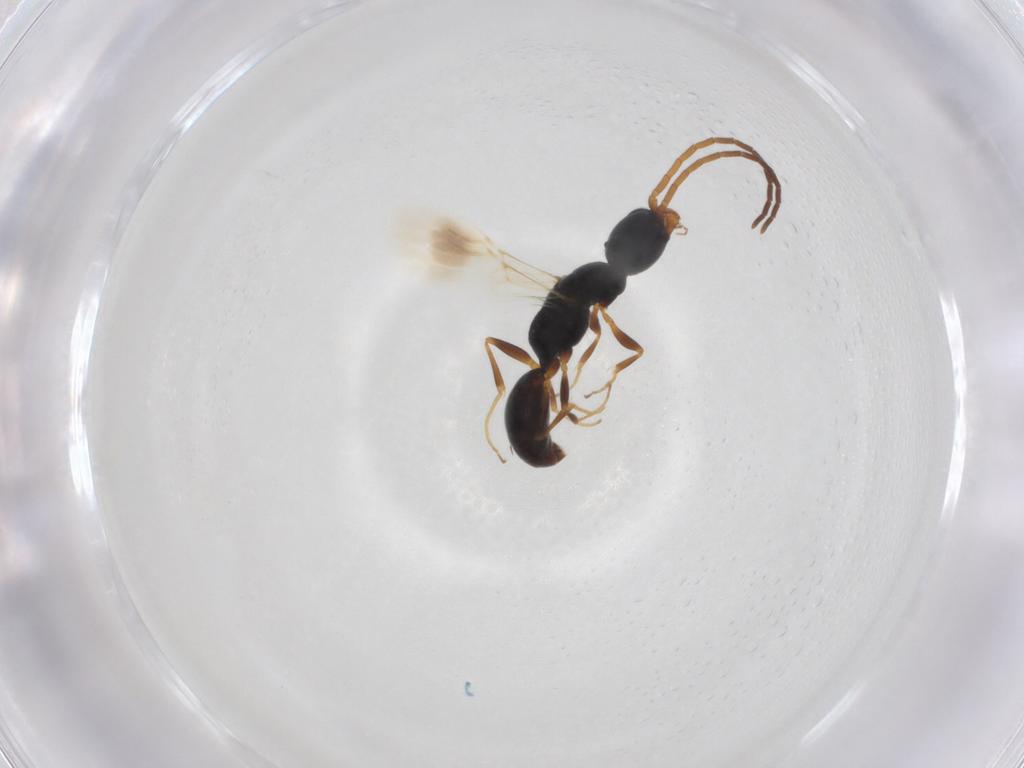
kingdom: Animalia
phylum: Arthropoda
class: Insecta
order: Hymenoptera
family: Bethylidae
